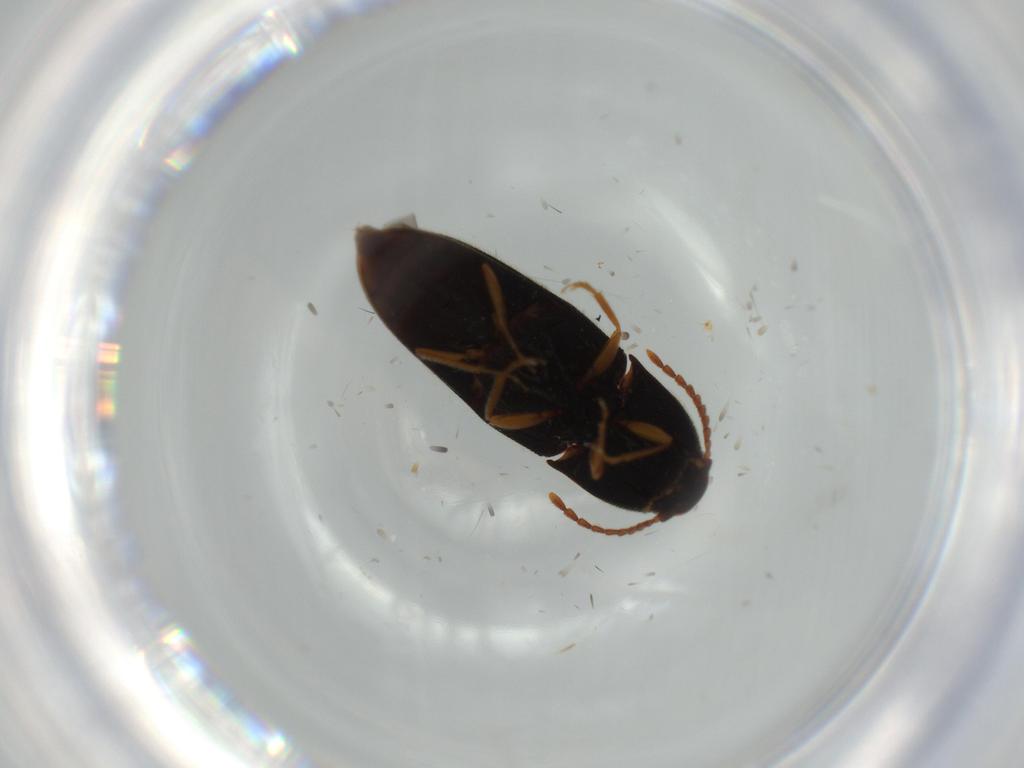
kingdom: Animalia
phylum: Arthropoda
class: Insecta
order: Coleoptera
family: Elateridae
